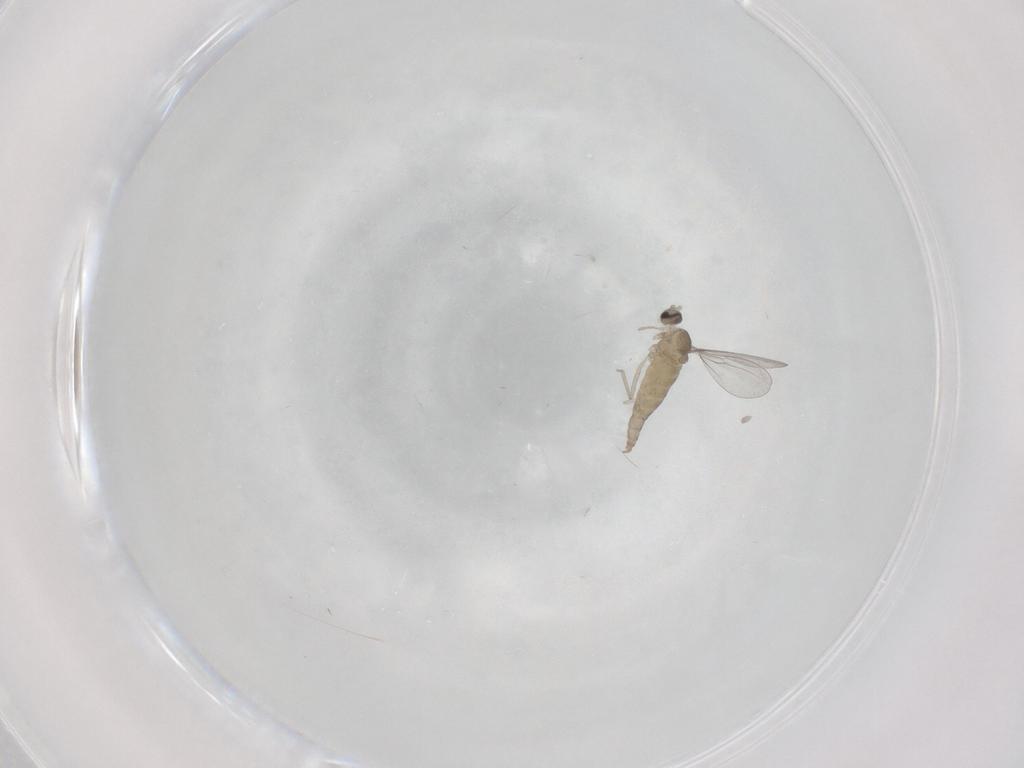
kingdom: Animalia
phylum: Arthropoda
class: Insecta
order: Diptera
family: Cecidomyiidae
